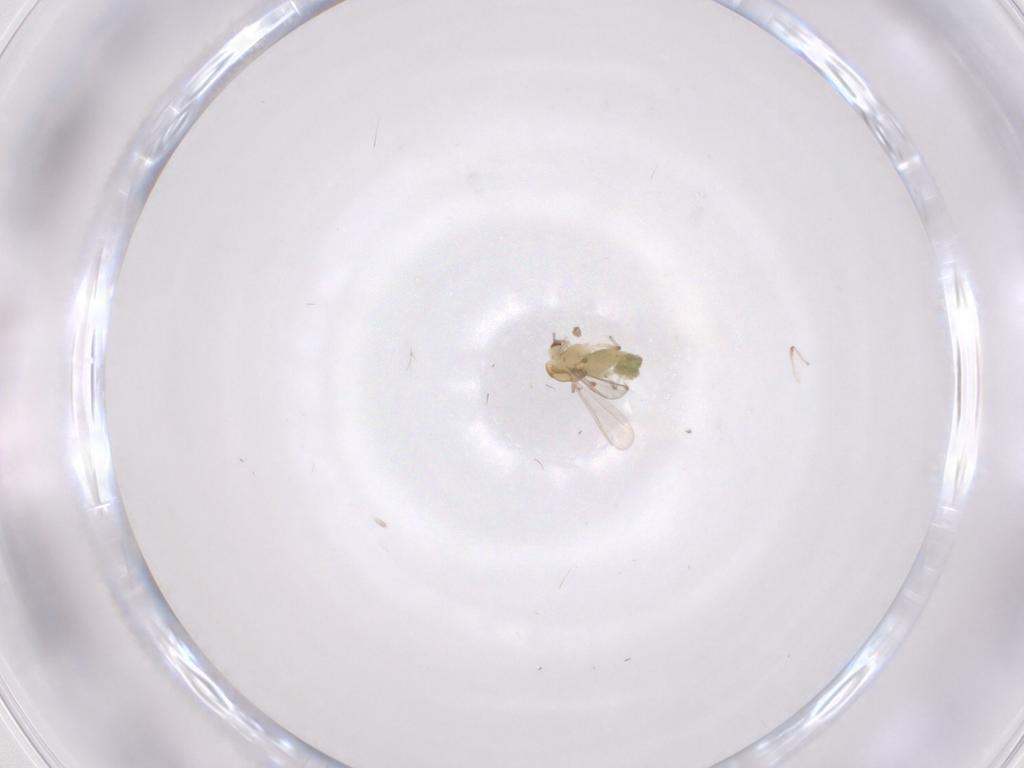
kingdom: Animalia
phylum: Arthropoda
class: Insecta
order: Diptera
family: Chironomidae
